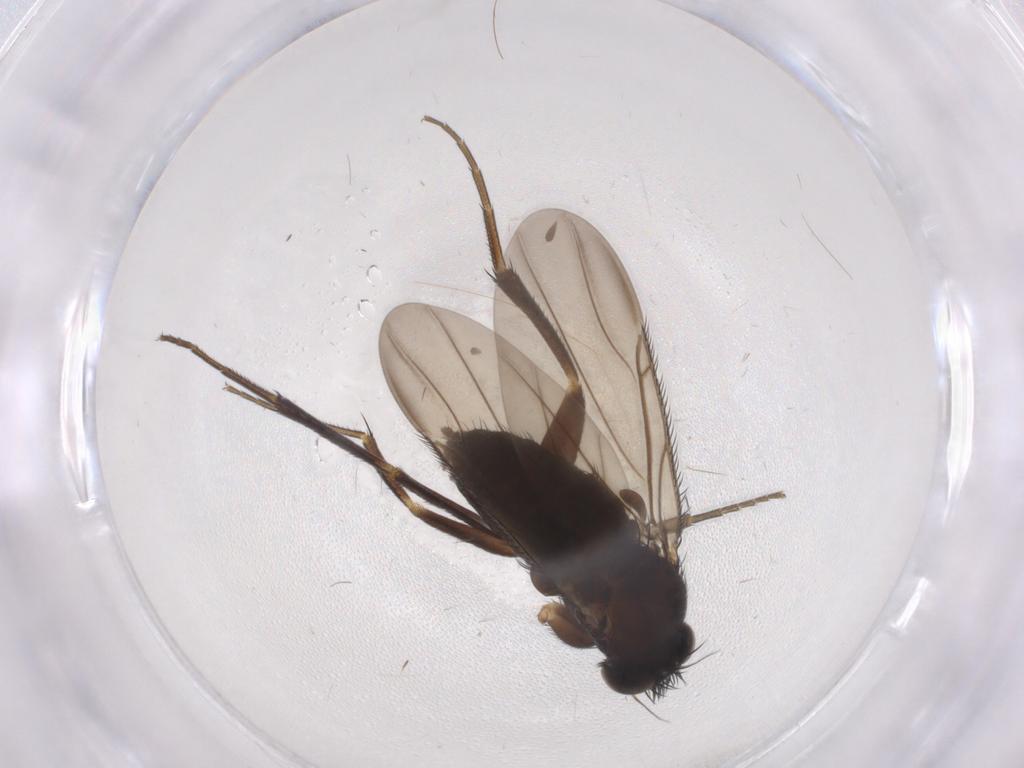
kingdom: Animalia
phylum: Arthropoda
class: Insecta
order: Diptera
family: Phoridae
